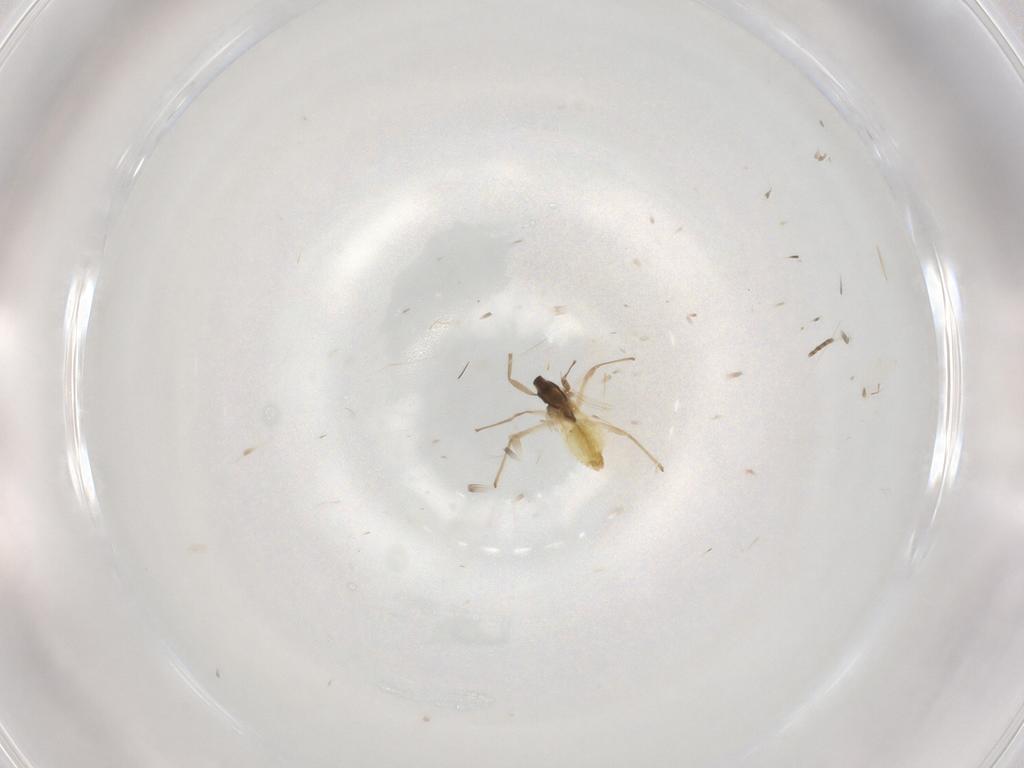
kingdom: Animalia
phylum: Arthropoda
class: Insecta
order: Diptera
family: Chironomidae
